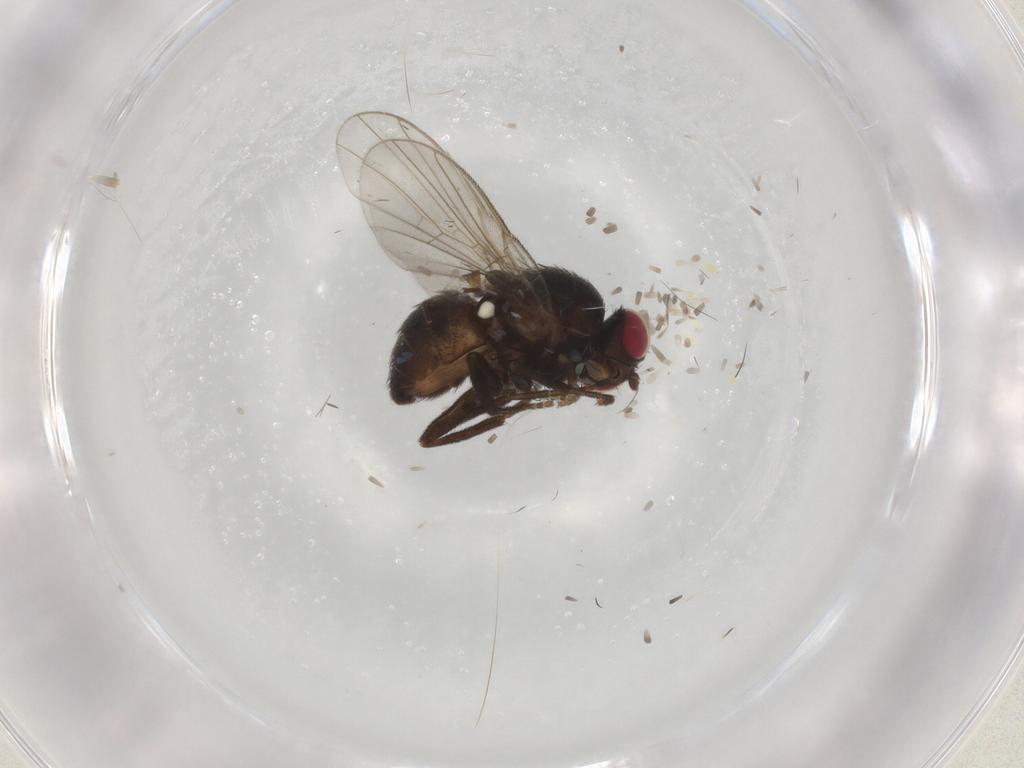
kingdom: Animalia
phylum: Arthropoda
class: Insecta
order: Diptera
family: Agromyzidae
